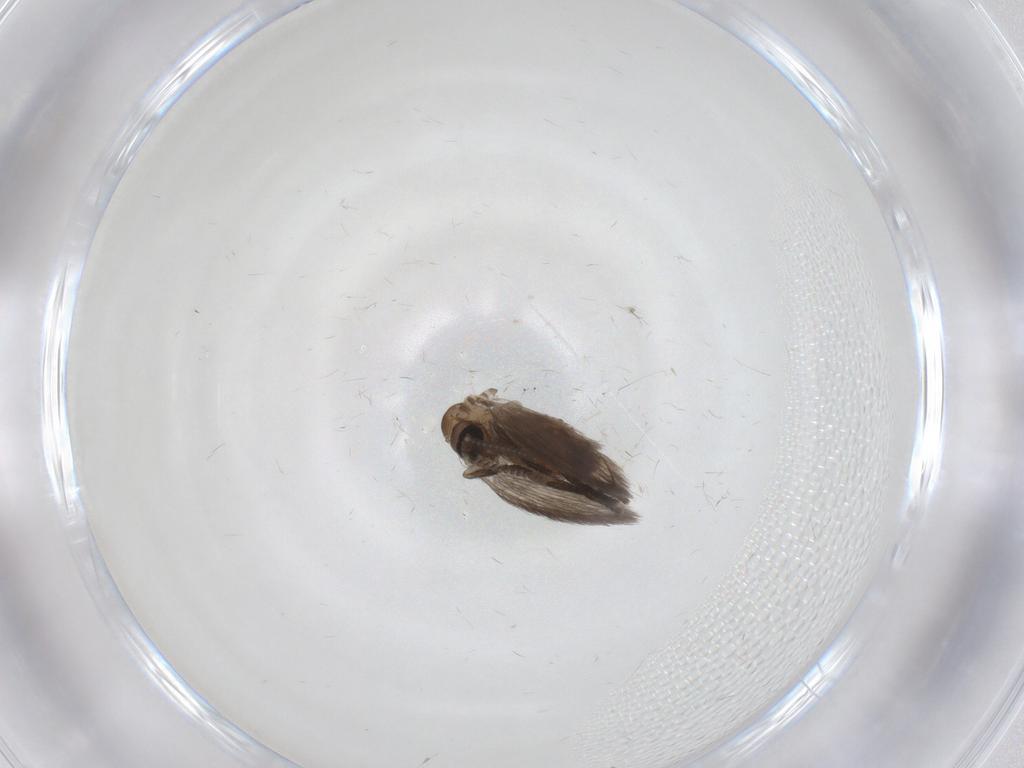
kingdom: Animalia
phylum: Arthropoda
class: Insecta
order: Diptera
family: Psychodidae
